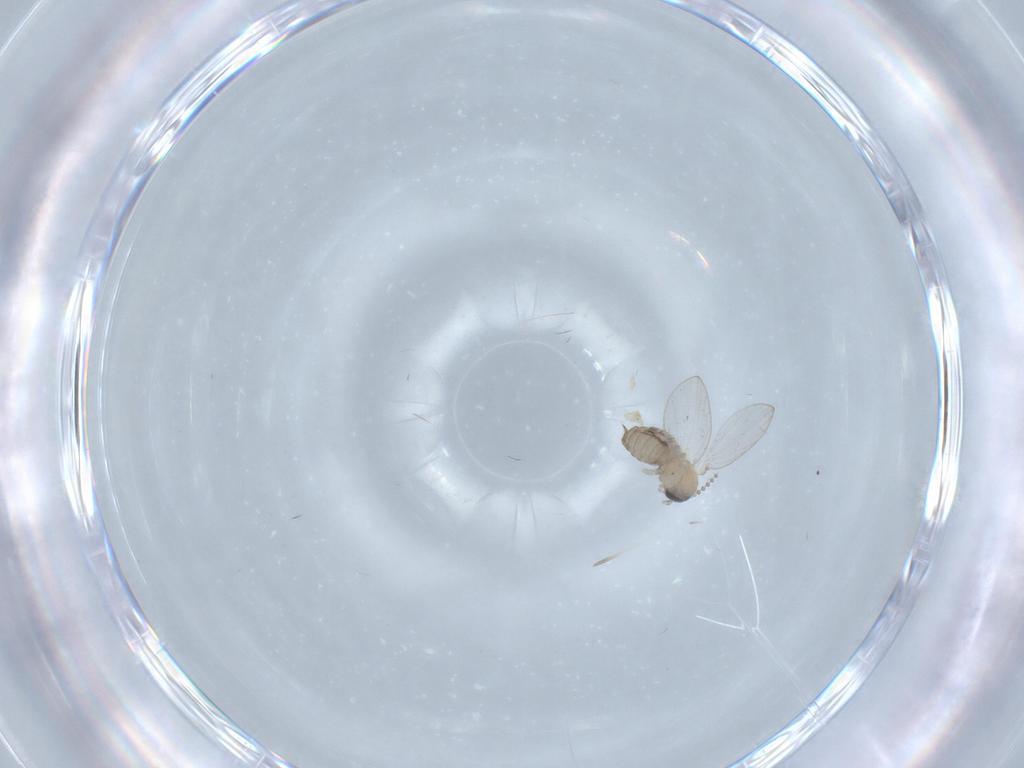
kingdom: Animalia
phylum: Arthropoda
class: Insecta
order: Diptera
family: Psychodidae
